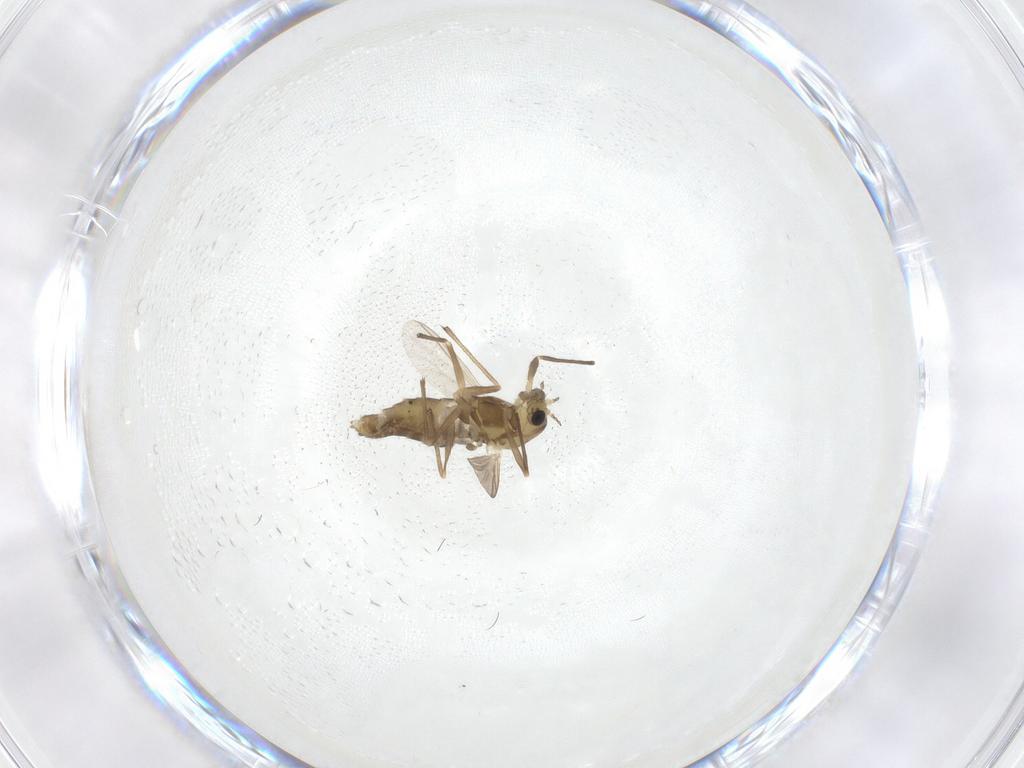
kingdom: Animalia
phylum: Arthropoda
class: Insecta
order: Diptera
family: Chironomidae
